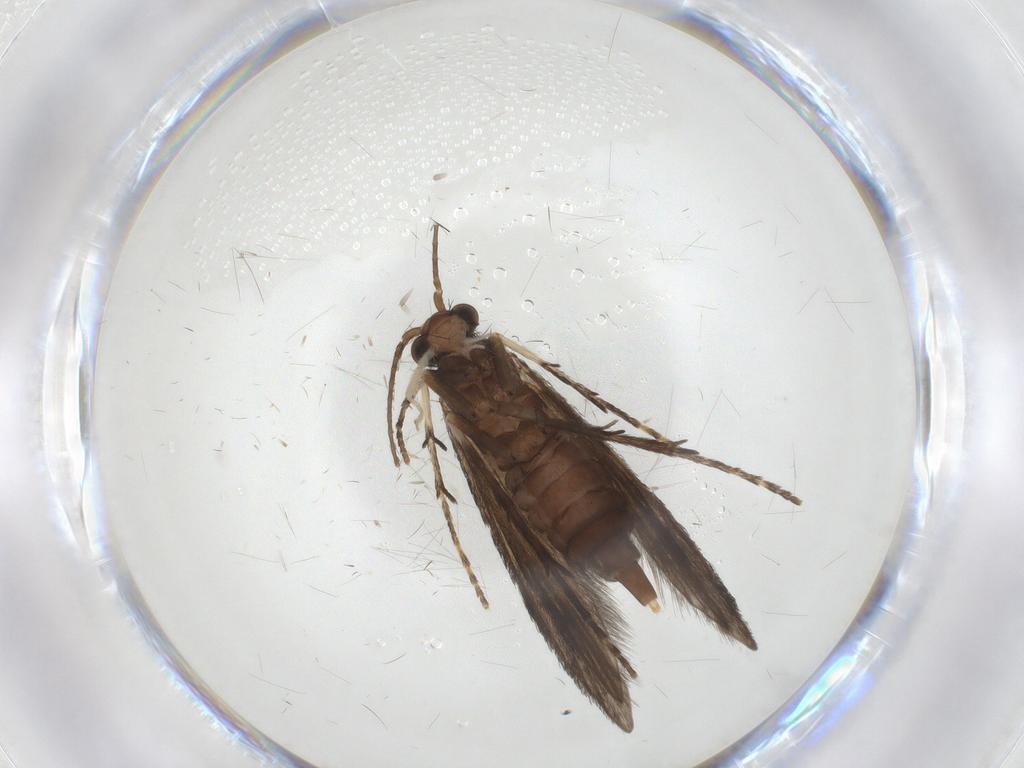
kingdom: Animalia
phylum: Arthropoda
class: Insecta
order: Trichoptera
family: Xiphocentronidae
